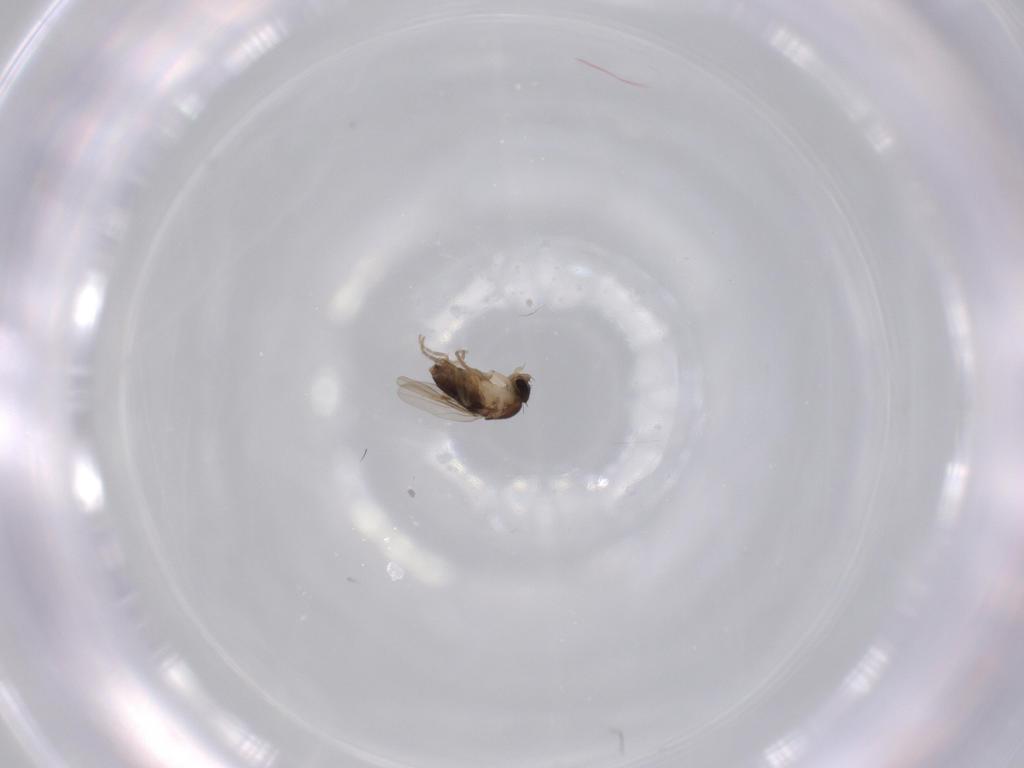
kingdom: Animalia
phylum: Arthropoda
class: Insecta
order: Diptera
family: Phoridae
